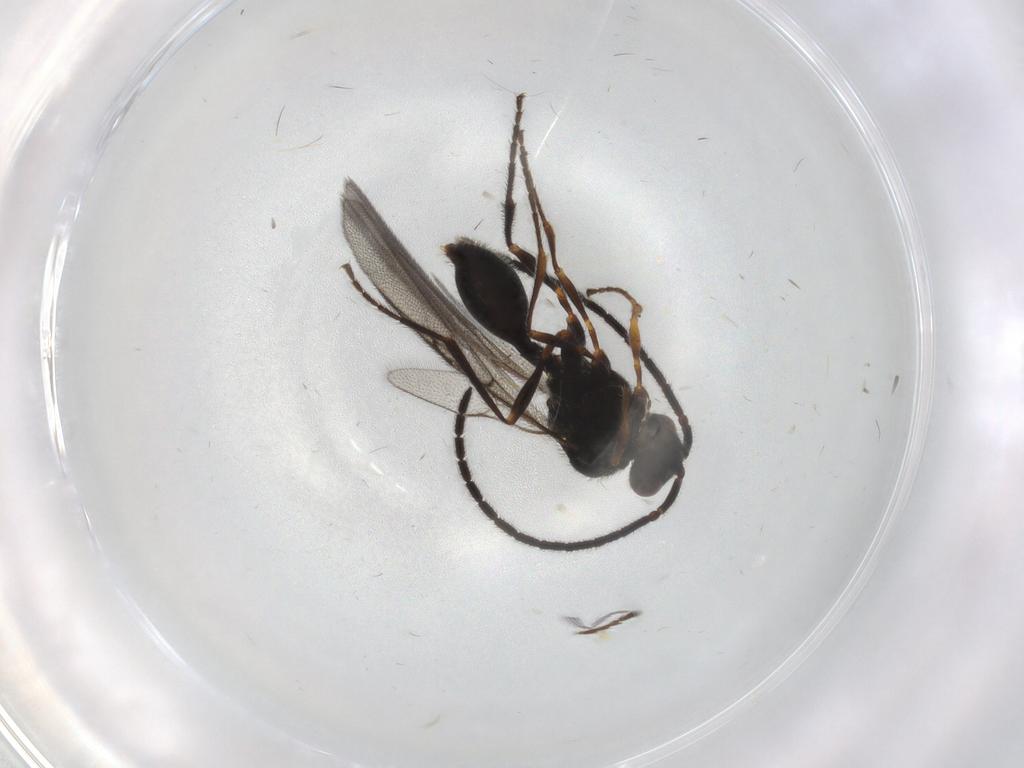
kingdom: Animalia
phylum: Arthropoda
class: Insecta
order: Hymenoptera
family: Diapriidae
